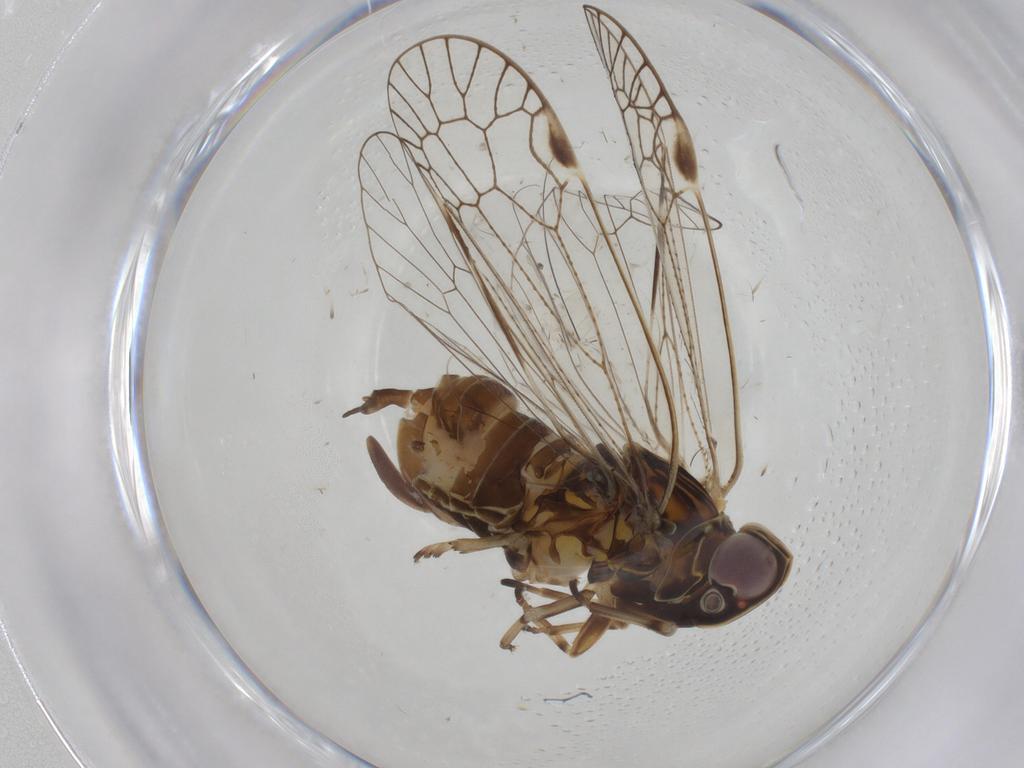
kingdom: Animalia
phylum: Arthropoda
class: Insecta
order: Hemiptera
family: Cixiidae
